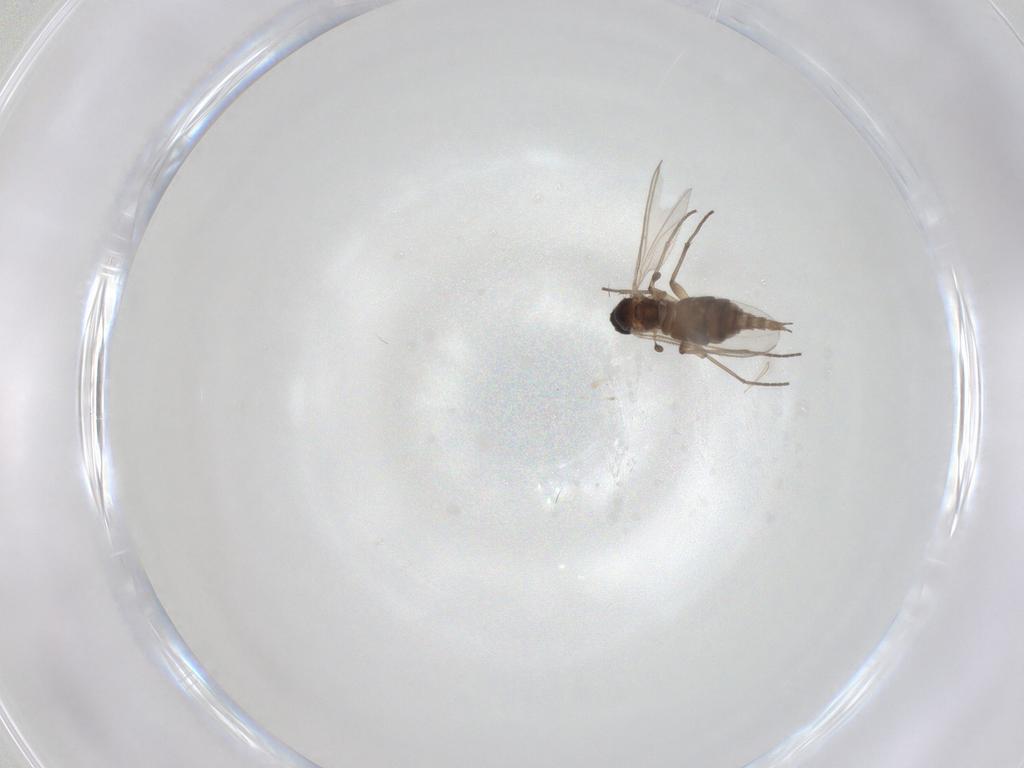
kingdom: Animalia
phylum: Arthropoda
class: Insecta
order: Diptera
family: Sciaridae
